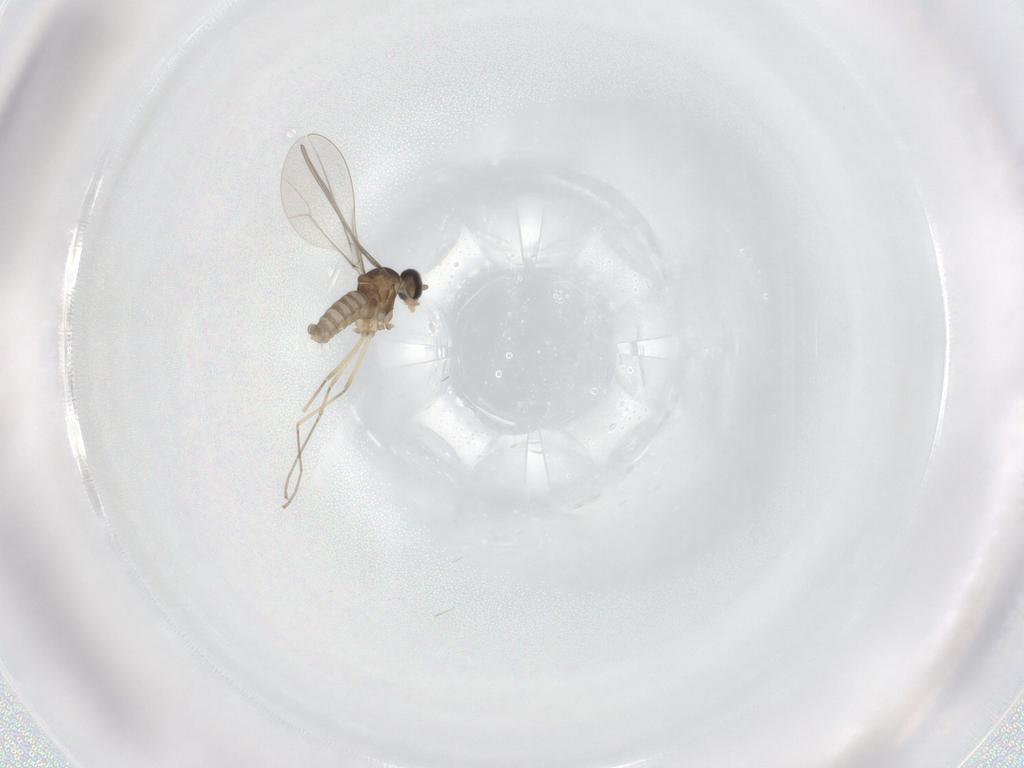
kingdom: Animalia
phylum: Arthropoda
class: Insecta
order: Diptera
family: Cecidomyiidae
